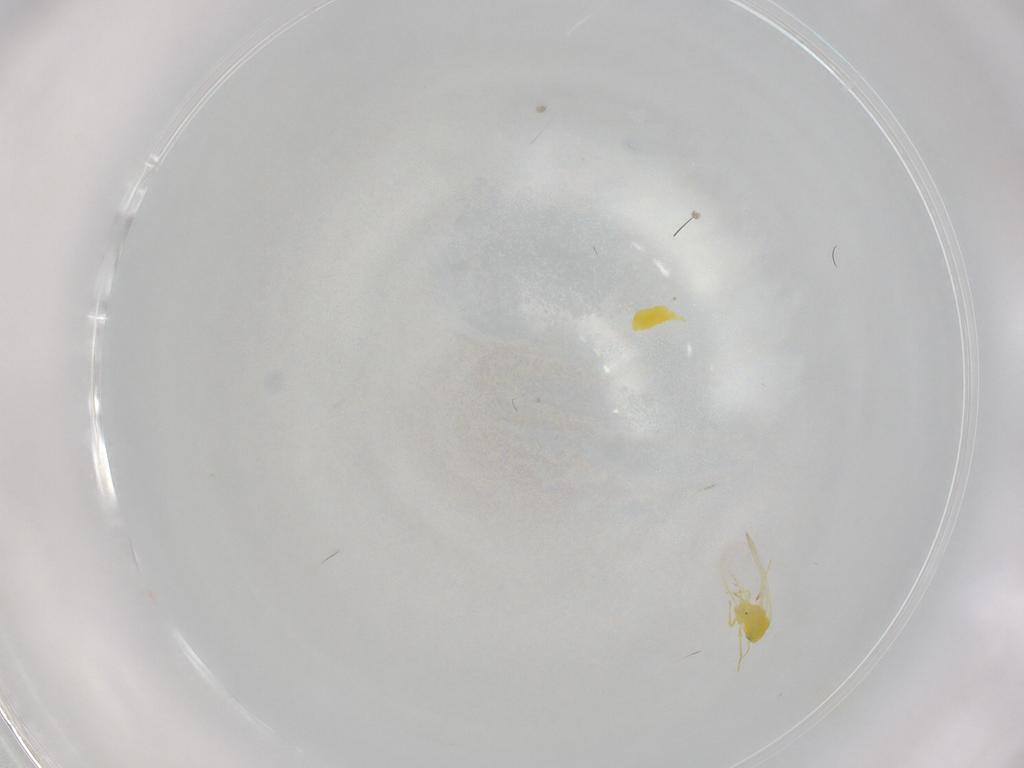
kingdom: Animalia
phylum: Arthropoda
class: Insecta
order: Hemiptera
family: Aleyrodidae
